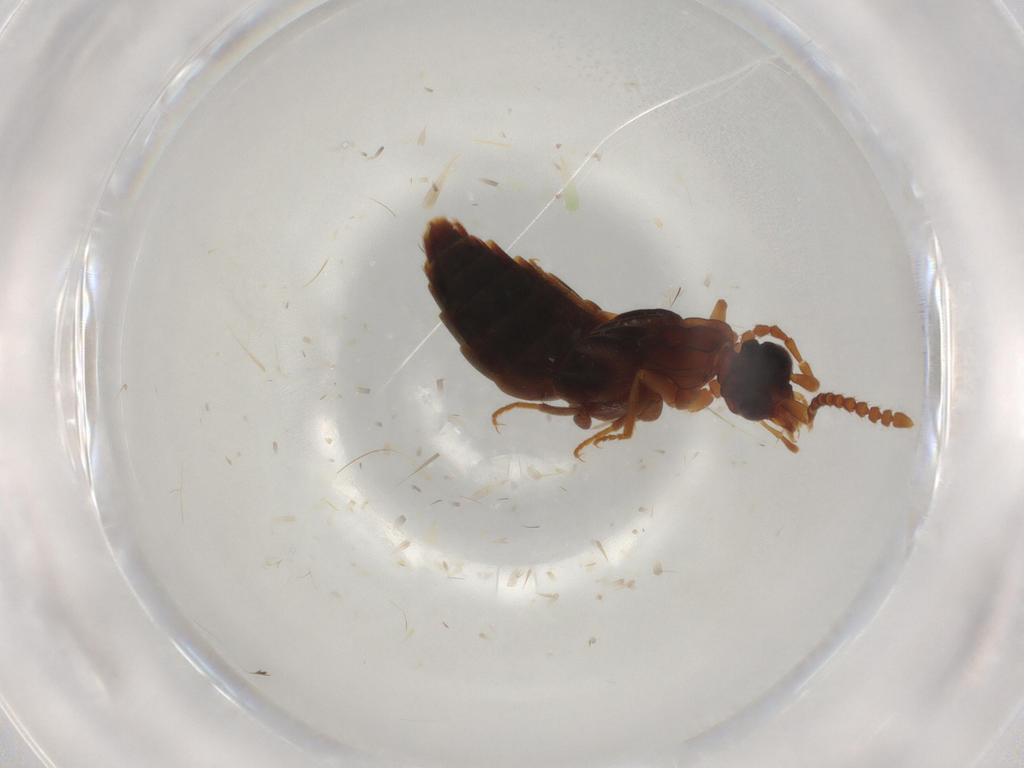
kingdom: Animalia
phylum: Arthropoda
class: Insecta
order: Coleoptera
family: Staphylinidae
